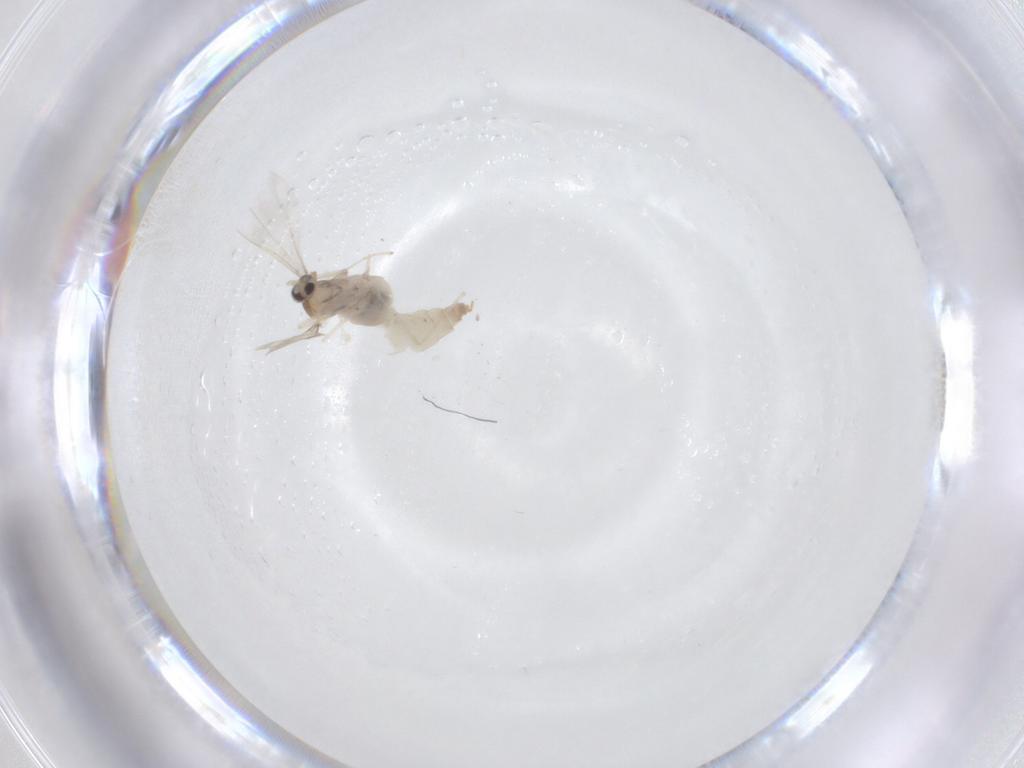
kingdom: Animalia
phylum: Arthropoda
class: Insecta
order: Diptera
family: Cecidomyiidae
